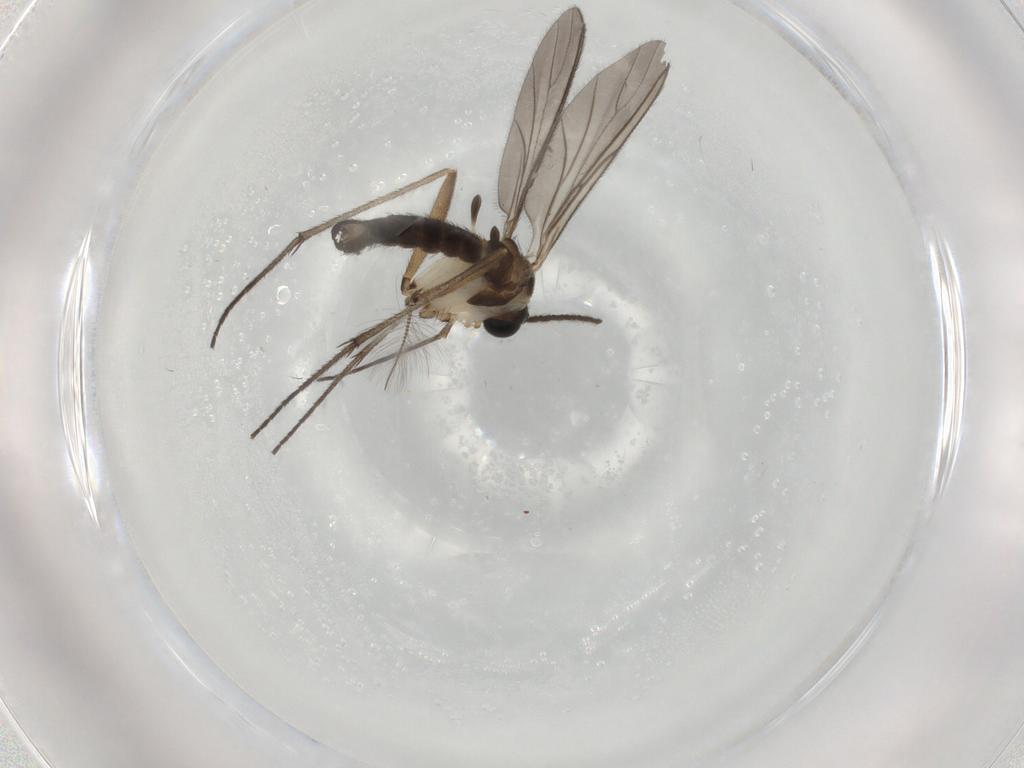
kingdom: Animalia
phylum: Arthropoda
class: Insecta
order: Diptera
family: Sciaridae
